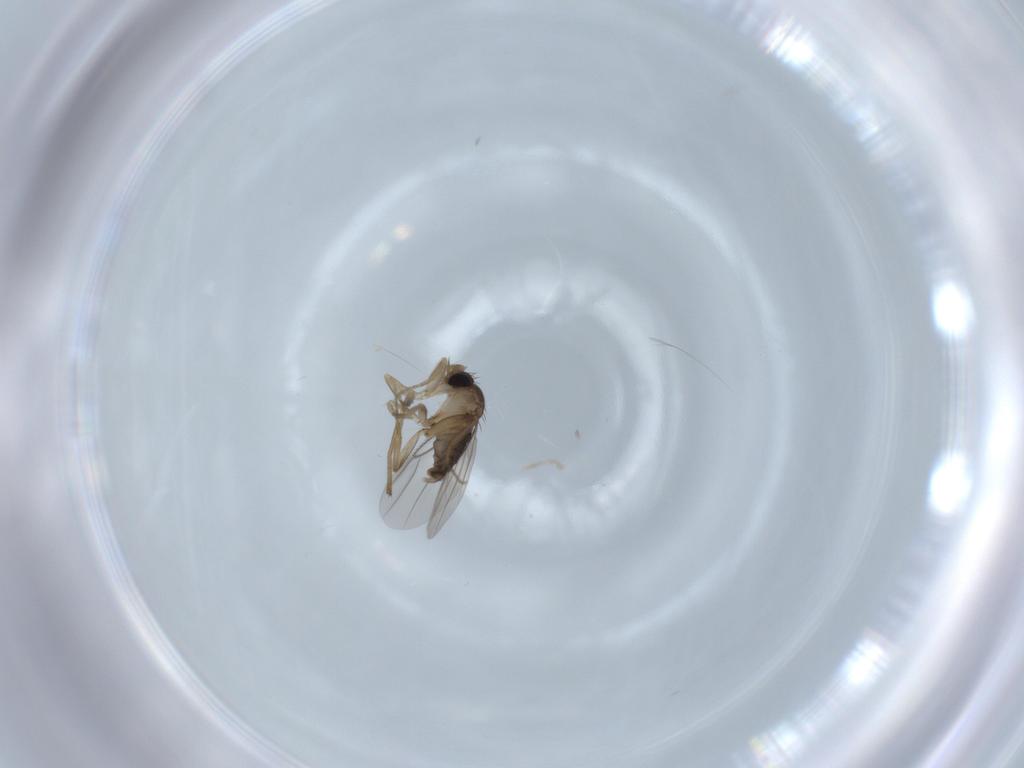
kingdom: Animalia
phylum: Arthropoda
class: Insecta
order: Diptera
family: Phoridae
